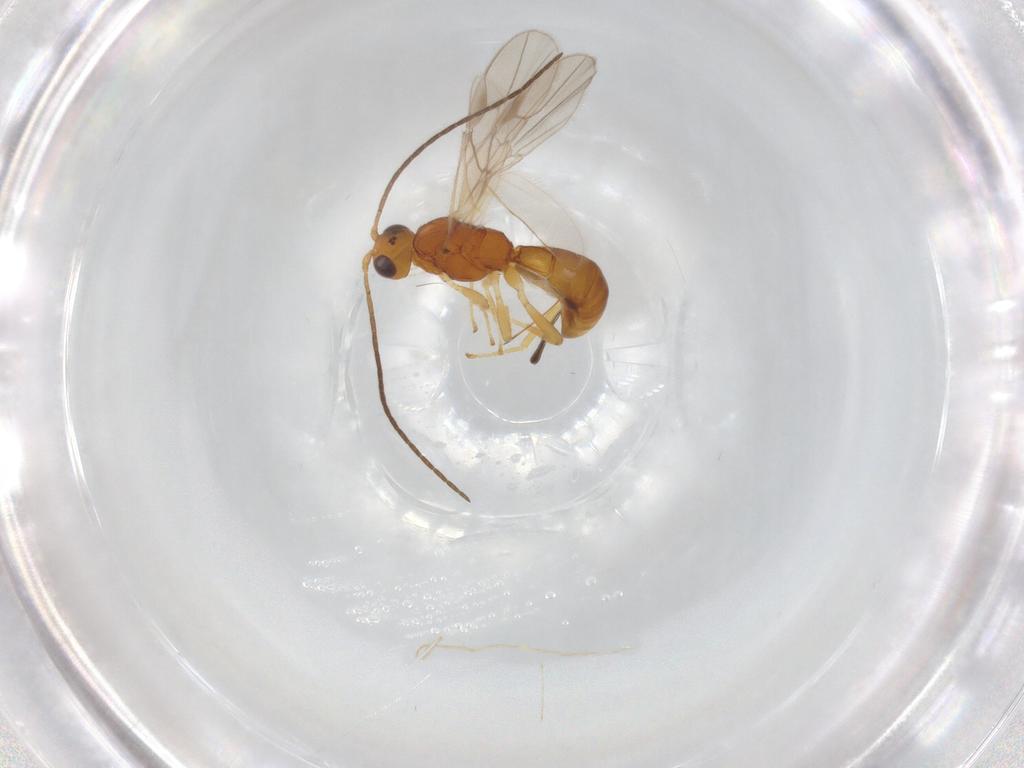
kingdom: Animalia
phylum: Arthropoda
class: Insecta
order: Hymenoptera
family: Braconidae
